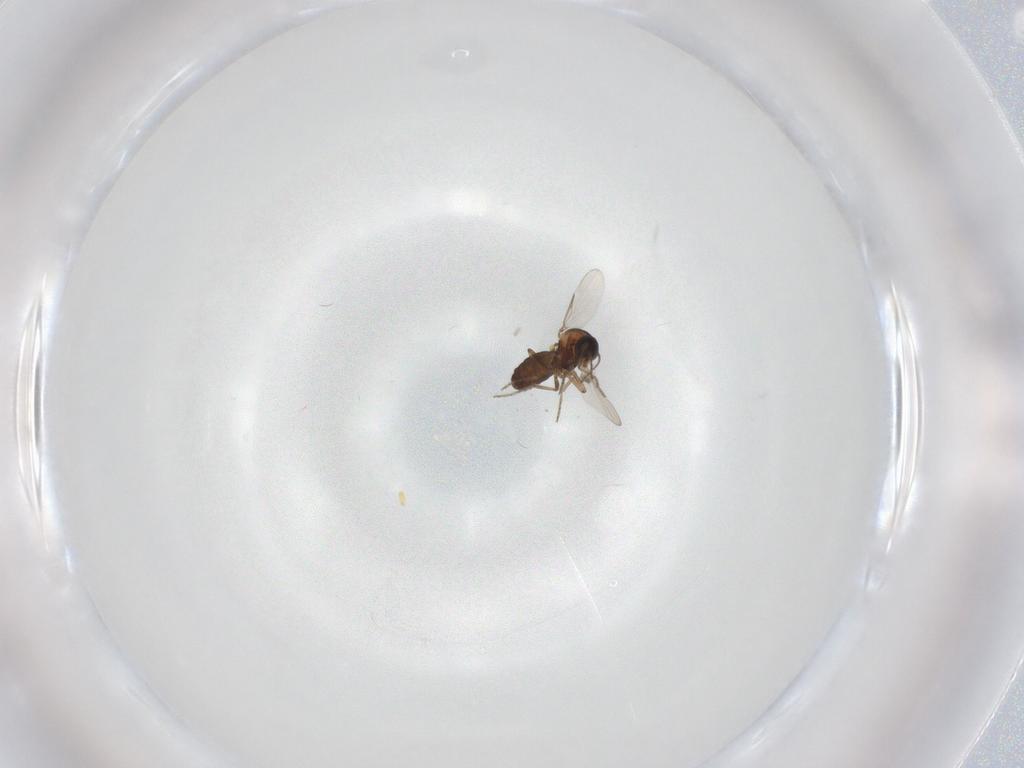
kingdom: Animalia
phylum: Arthropoda
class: Insecta
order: Diptera
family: Ceratopogonidae
